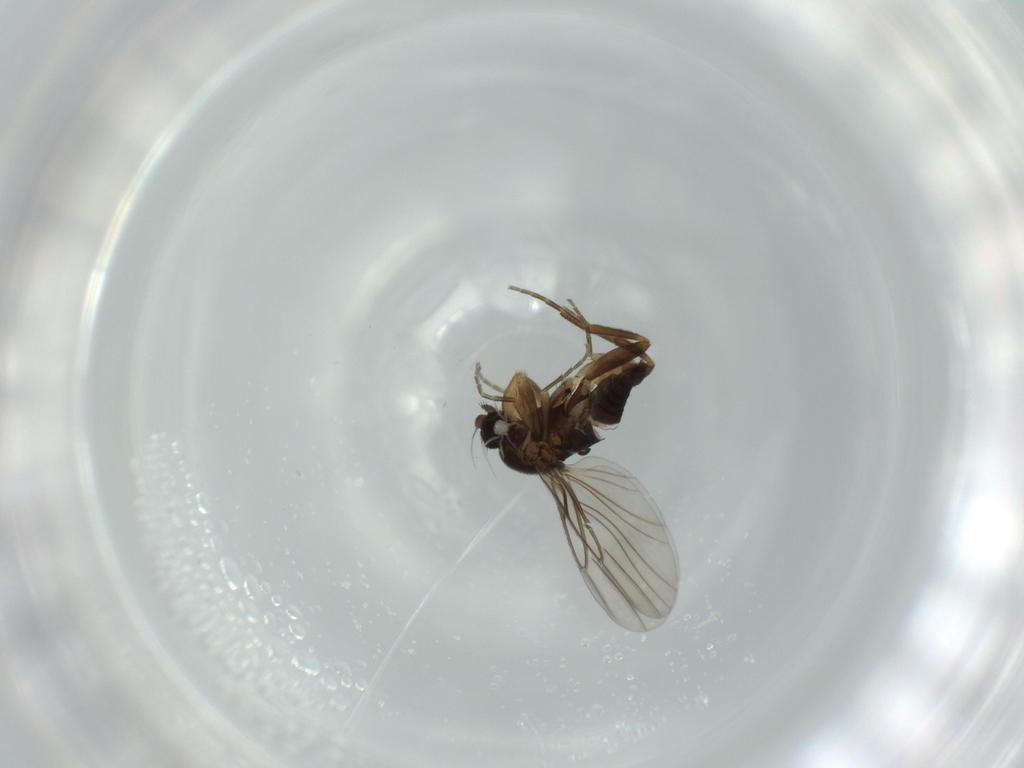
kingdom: Animalia
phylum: Arthropoda
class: Insecta
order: Diptera
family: Phoridae
